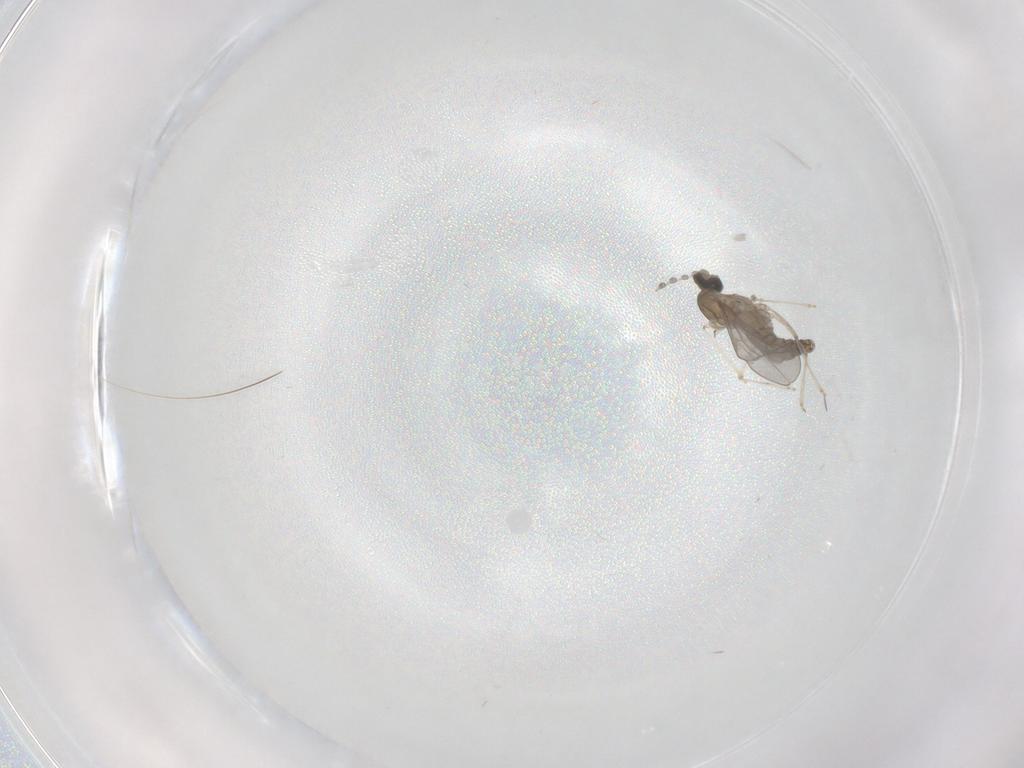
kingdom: Animalia
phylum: Arthropoda
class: Insecta
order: Diptera
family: Cecidomyiidae
